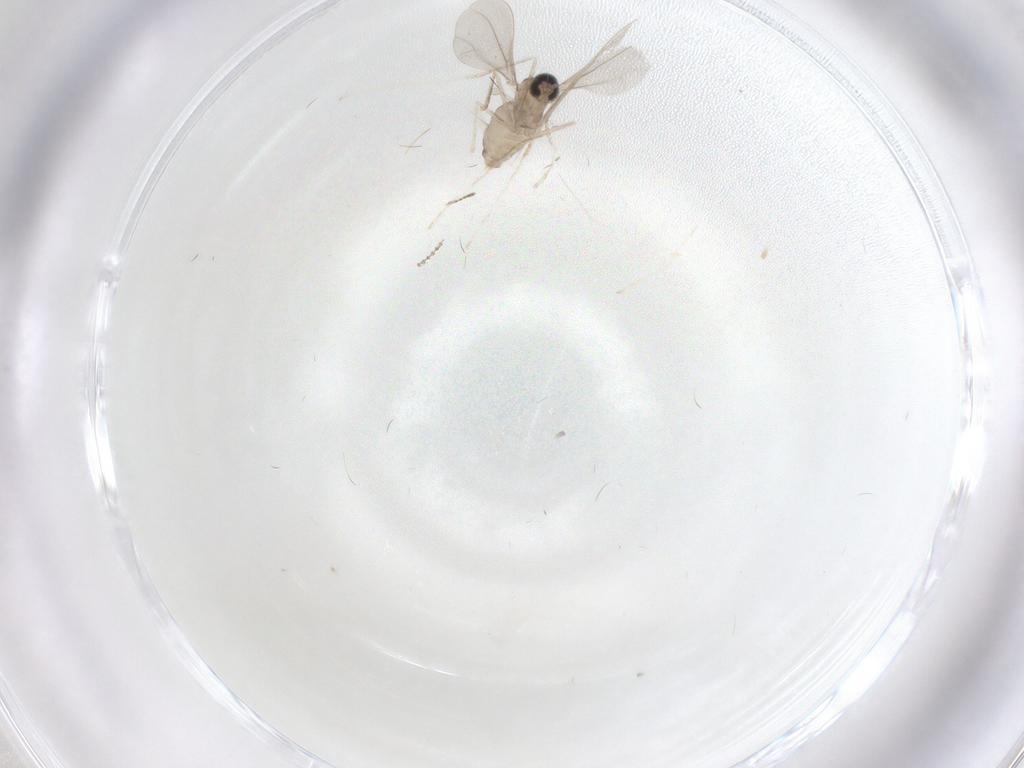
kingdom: Animalia
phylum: Arthropoda
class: Insecta
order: Diptera
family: Cecidomyiidae
